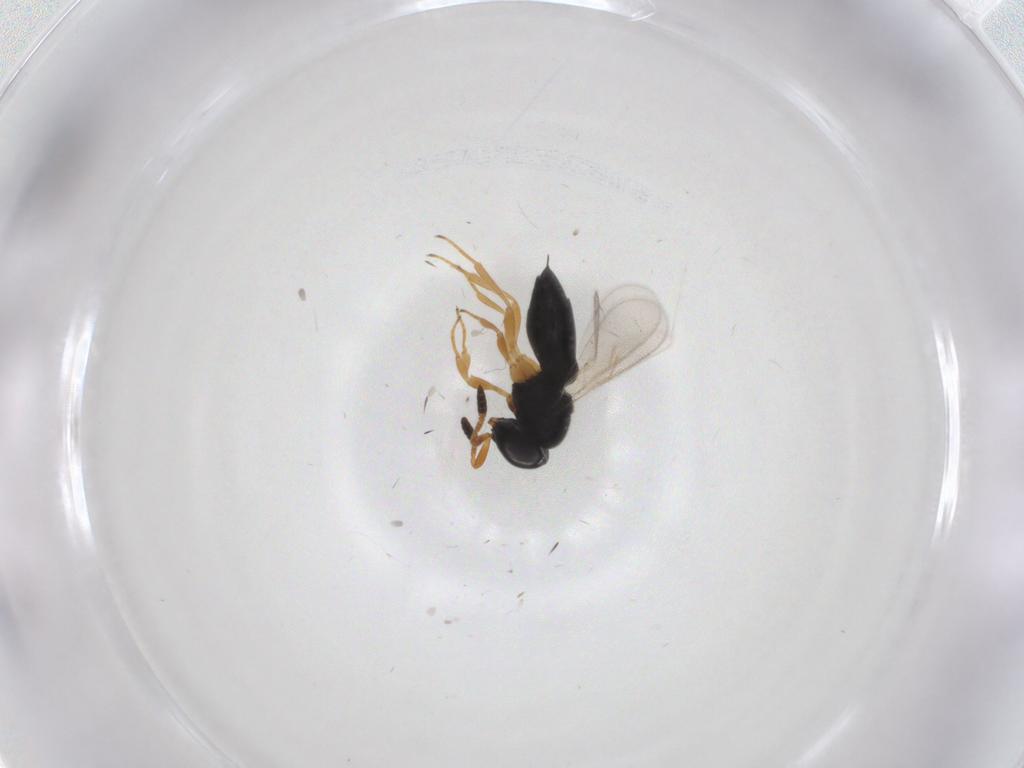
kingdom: Animalia
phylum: Arthropoda
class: Insecta
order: Hymenoptera
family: Scelionidae
